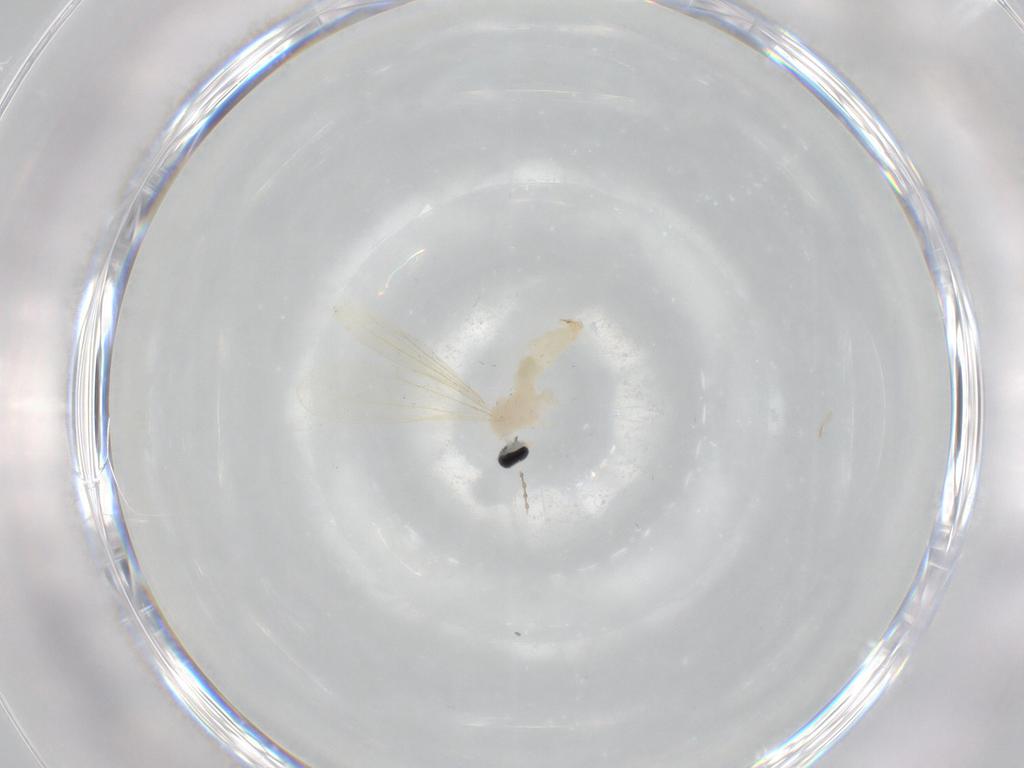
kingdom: Animalia
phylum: Arthropoda
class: Insecta
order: Diptera
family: Cecidomyiidae
